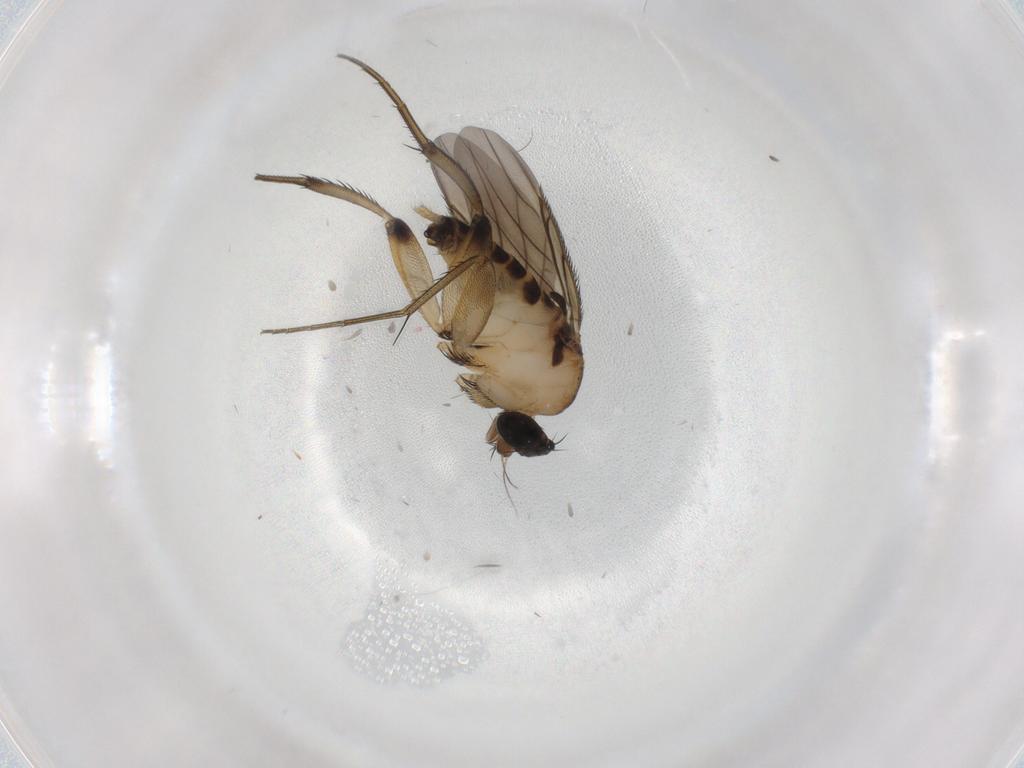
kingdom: Animalia
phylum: Arthropoda
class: Insecta
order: Diptera
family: Phoridae
